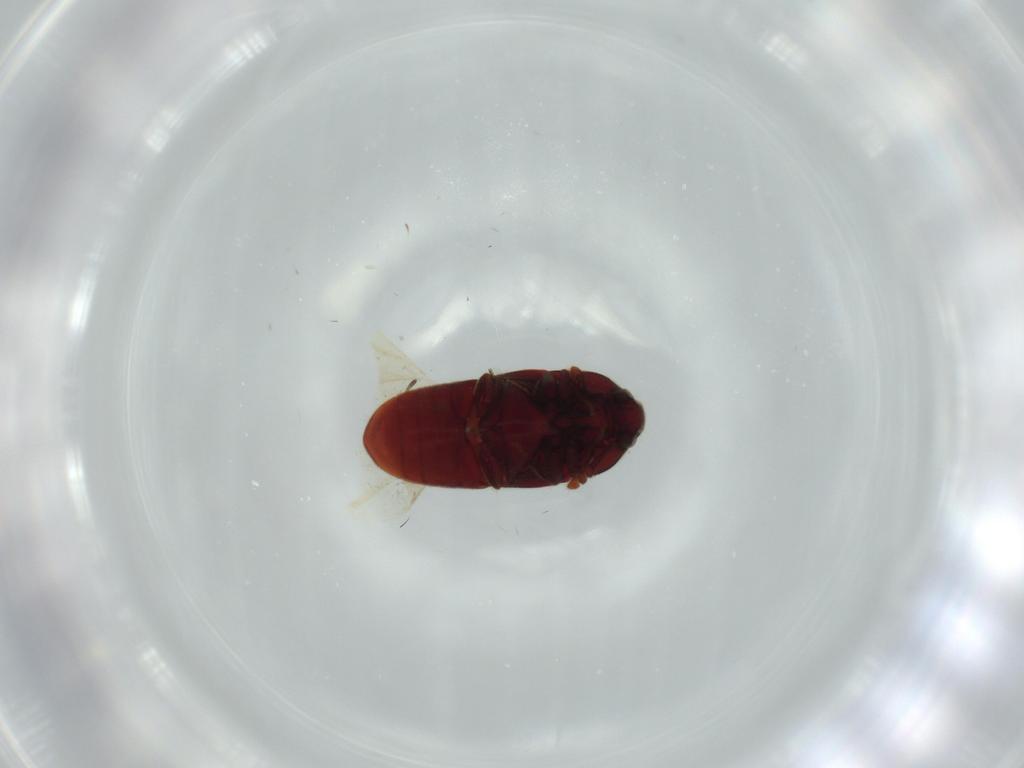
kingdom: Animalia
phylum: Arthropoda
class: Insecta
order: Coleoptera
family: Throscidae
